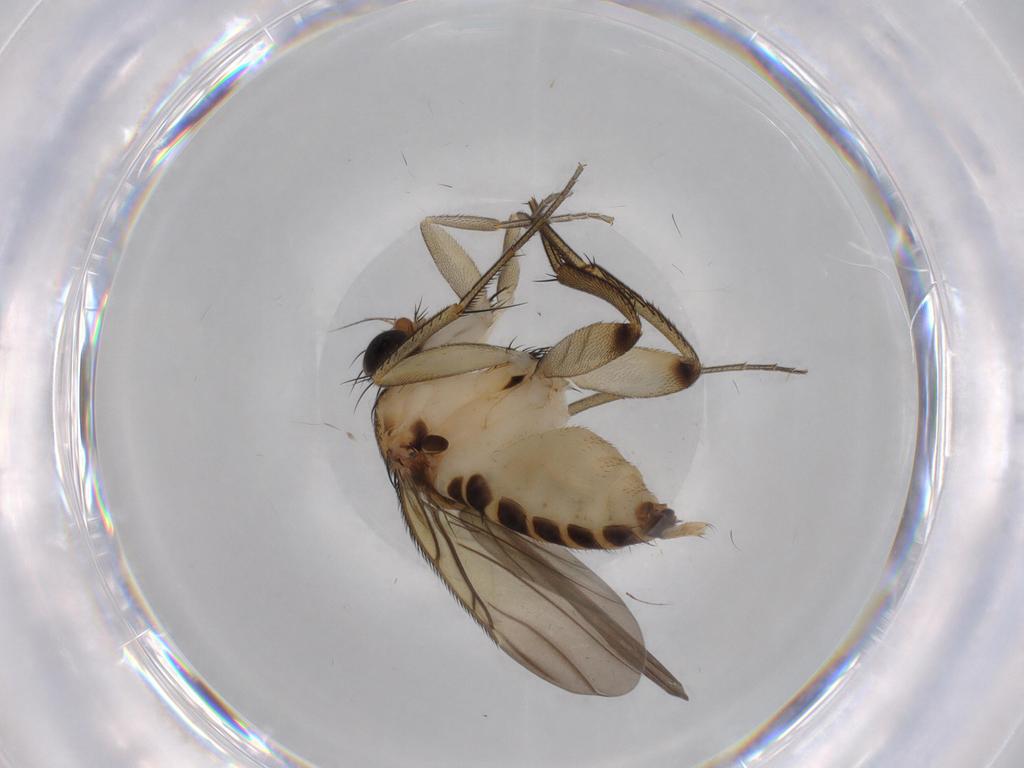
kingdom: Animalia
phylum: Arthropoda
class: Insecta
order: Diptera
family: Phoridae
